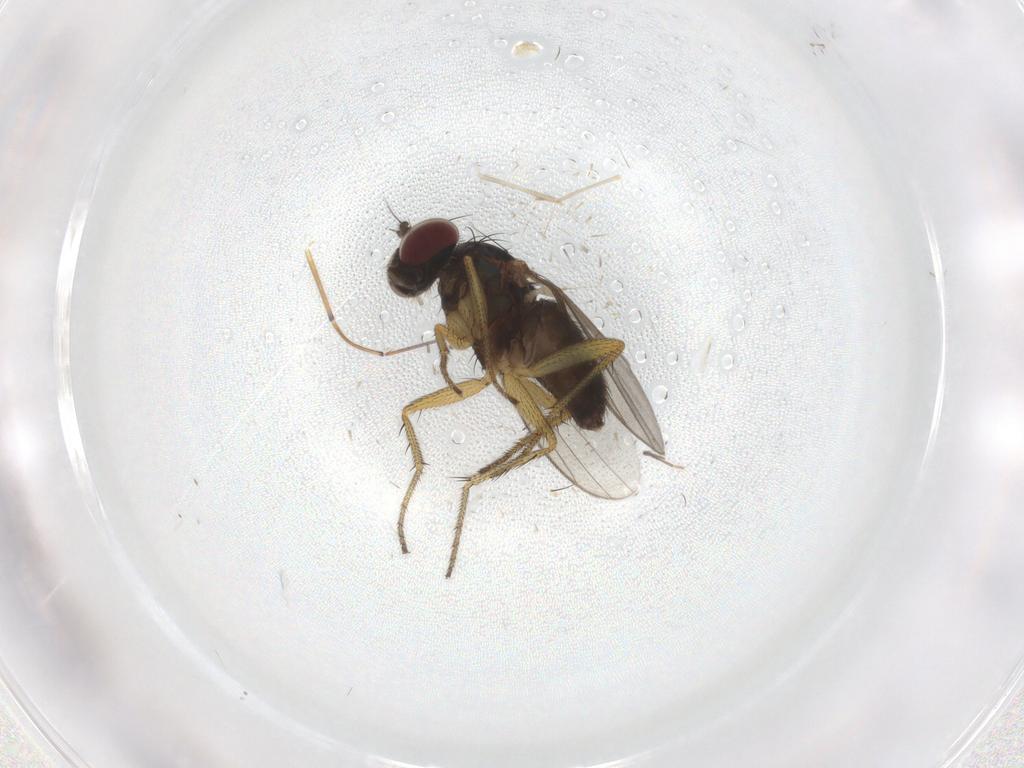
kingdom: Animalia
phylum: Arthropoda
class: Insecta
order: Diptera
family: Dolichopodidae
